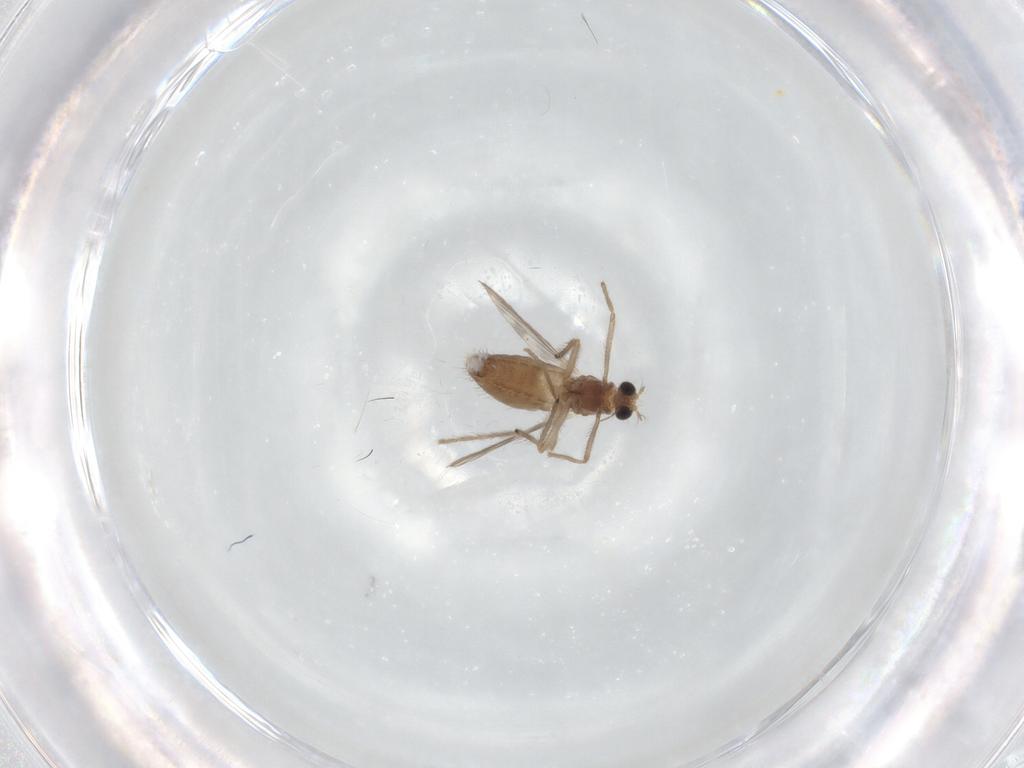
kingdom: Animalia
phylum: Arthropoda
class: Insecta
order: Diptera
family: Chironomidae
